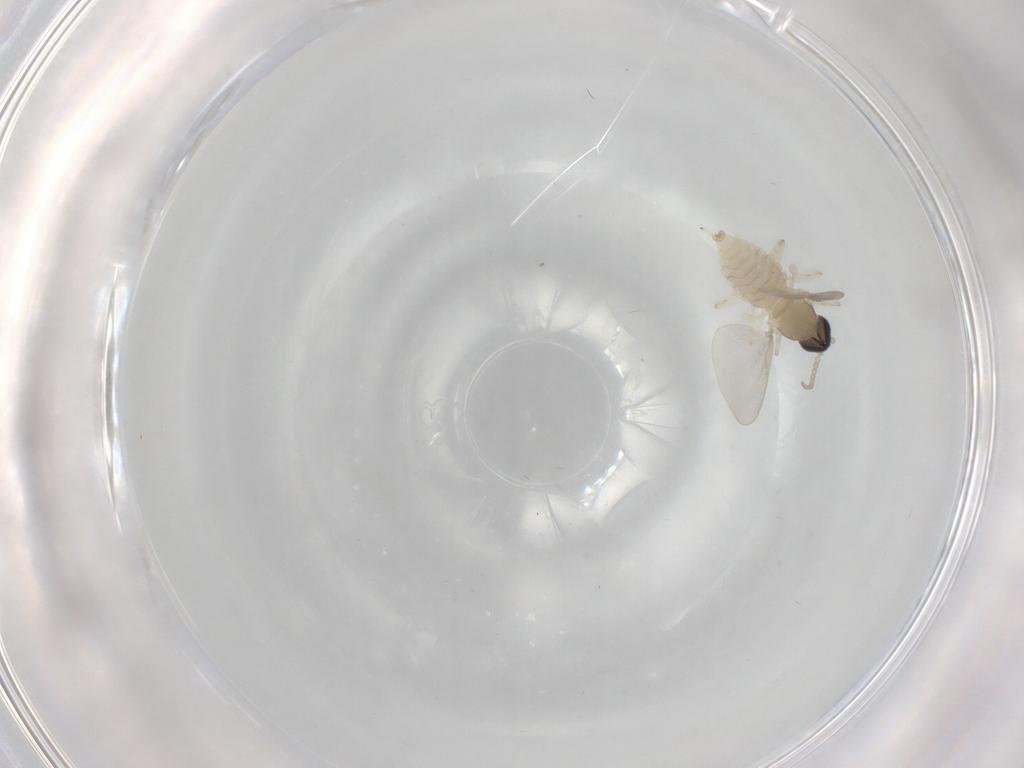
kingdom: Animalia
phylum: Arthropoda
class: Insecta
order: Diptera
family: Cecidomyiidae
